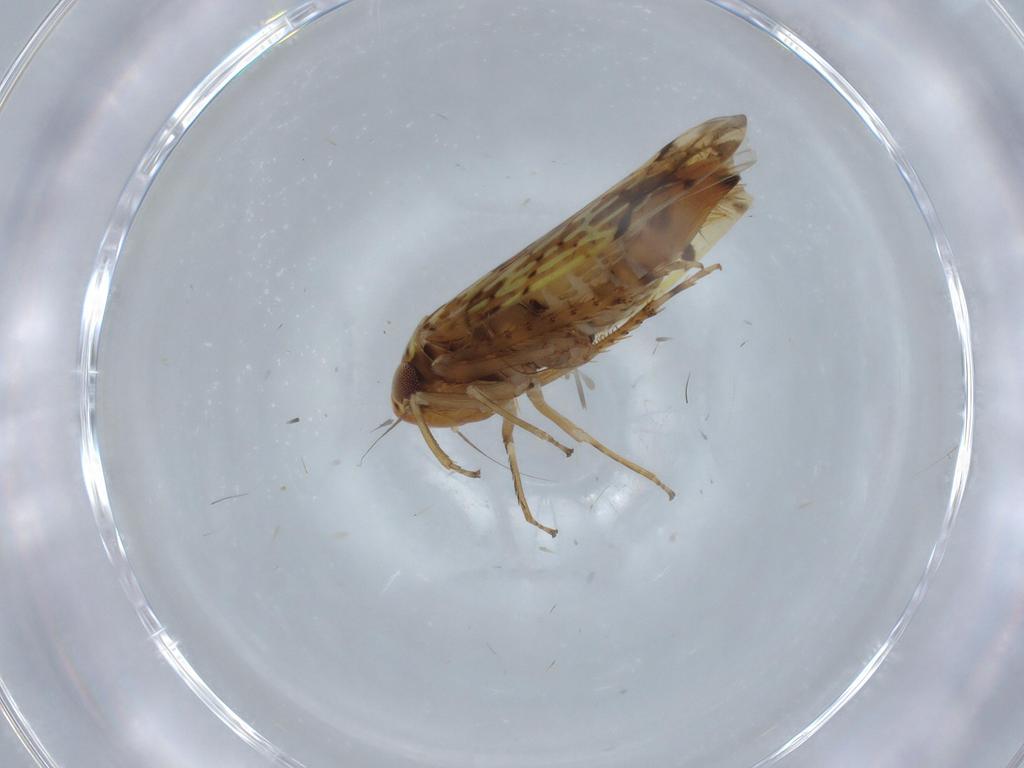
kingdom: Animalia
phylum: Arthropoda
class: Insecta
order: Hemiptera
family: Cicadellidae
